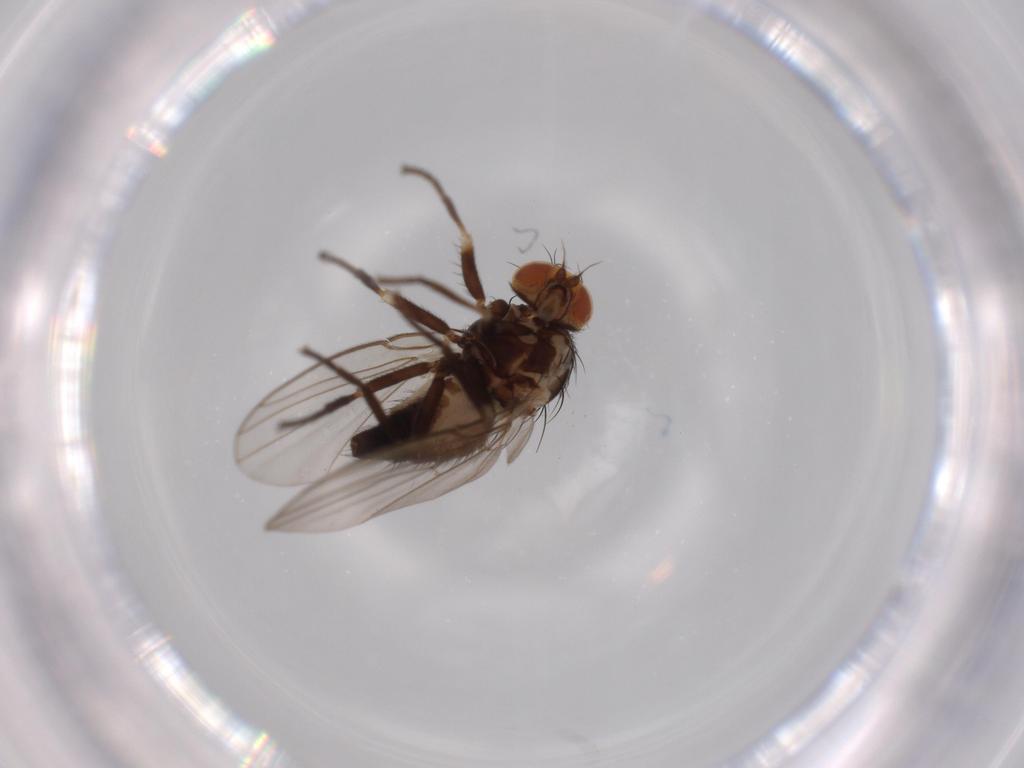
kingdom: Animalia
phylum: Arthropoda
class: Insecta
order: Diptera
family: Agromyzidae
